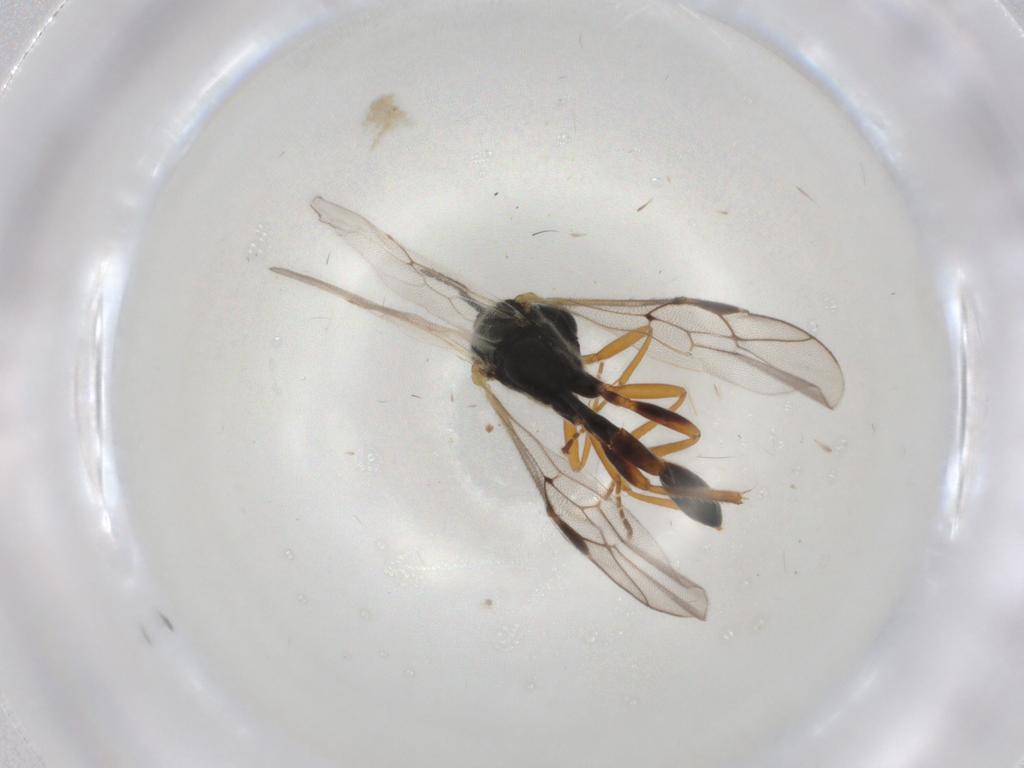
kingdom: Animalia
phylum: Arthropoda
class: Insecta
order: Hymenoptera
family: Ichneumonidae
